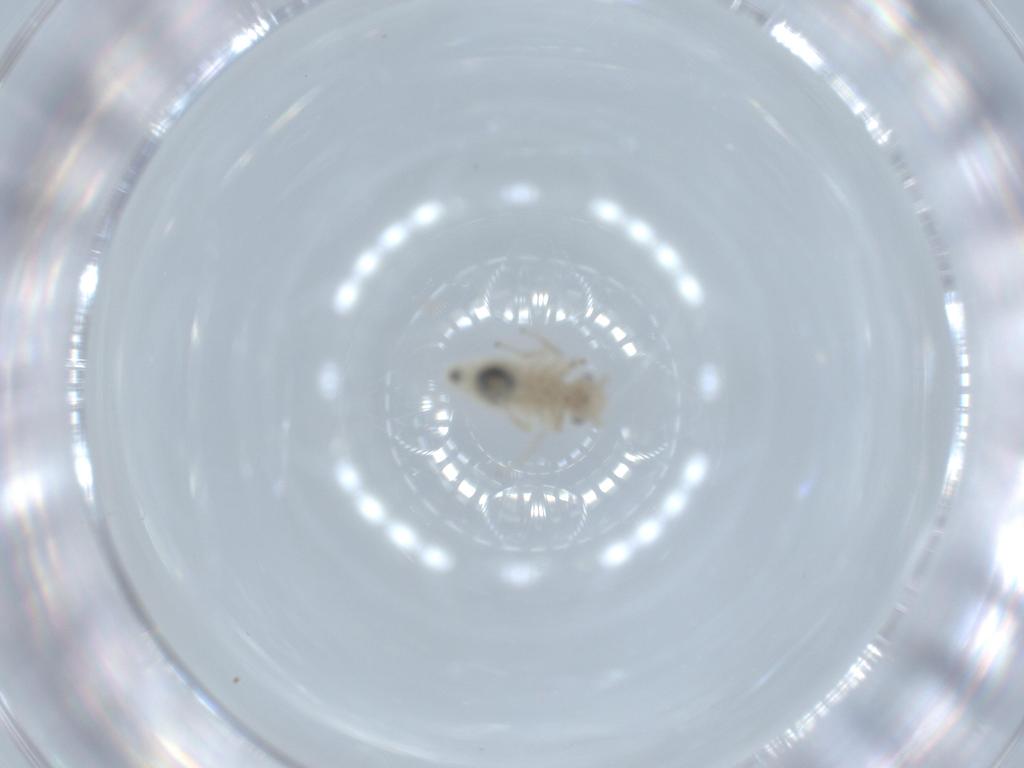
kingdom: Animalia
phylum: Arthropoda
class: Insecta
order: Psocodea
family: Caeciliusidae
